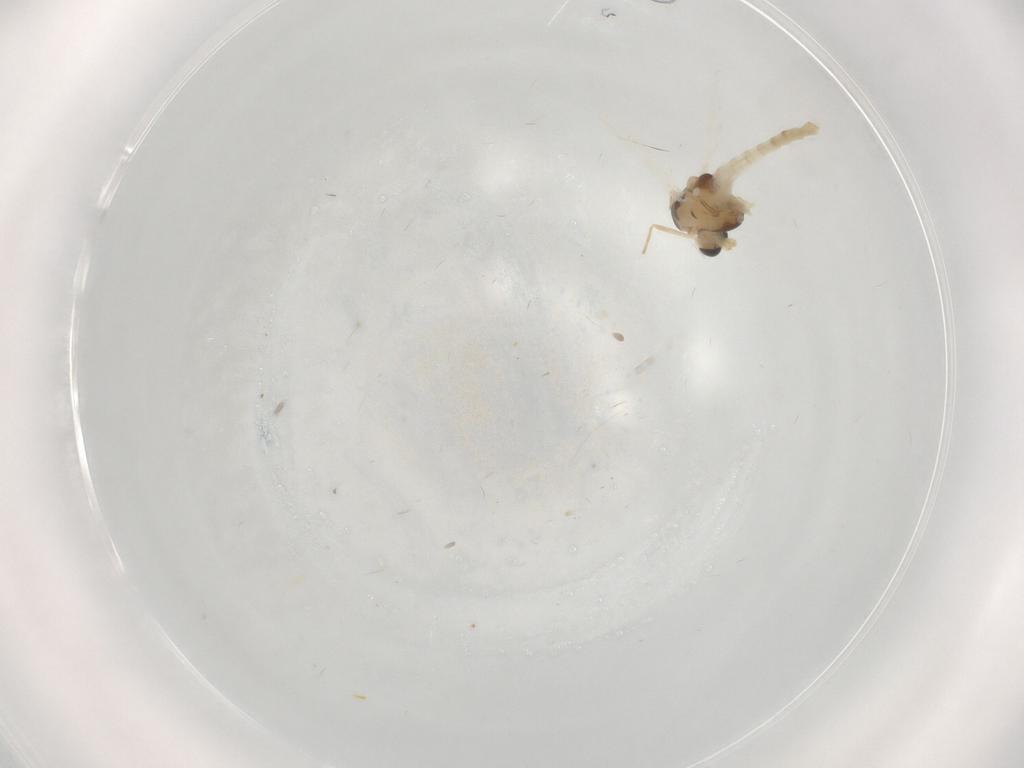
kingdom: Animalia
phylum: Arthropoda
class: Insecta
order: Diptera
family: Chironomidae
